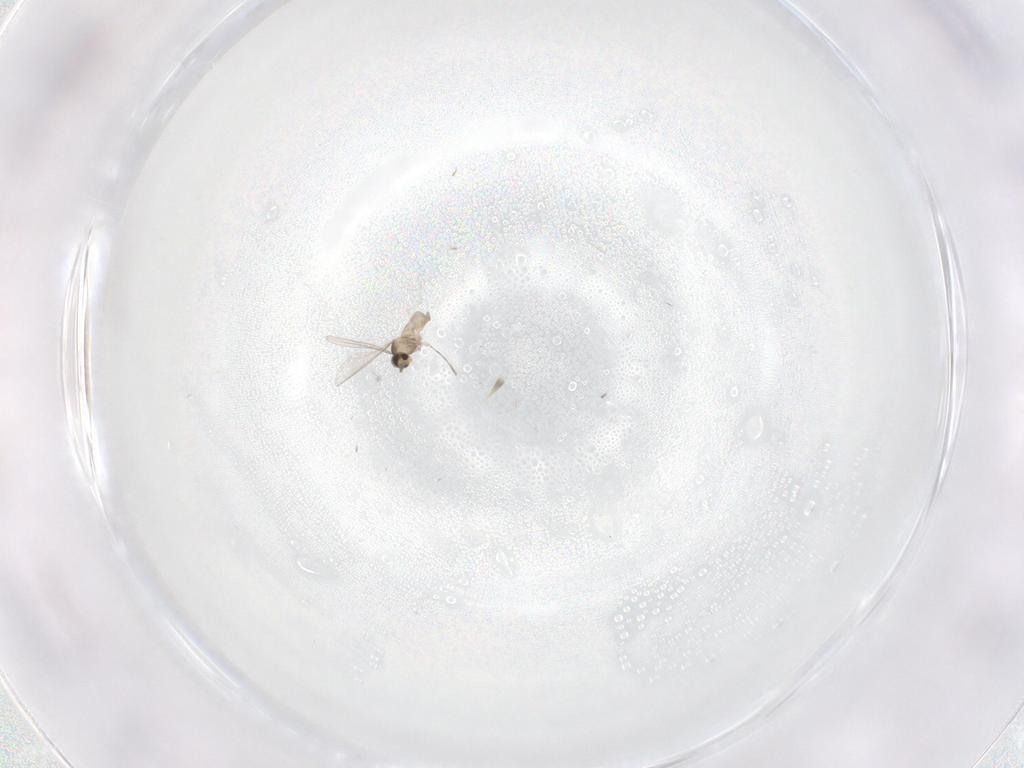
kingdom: Animalia
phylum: Arthropoda
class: Insecta
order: Diptera
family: Cecidomyiidae
